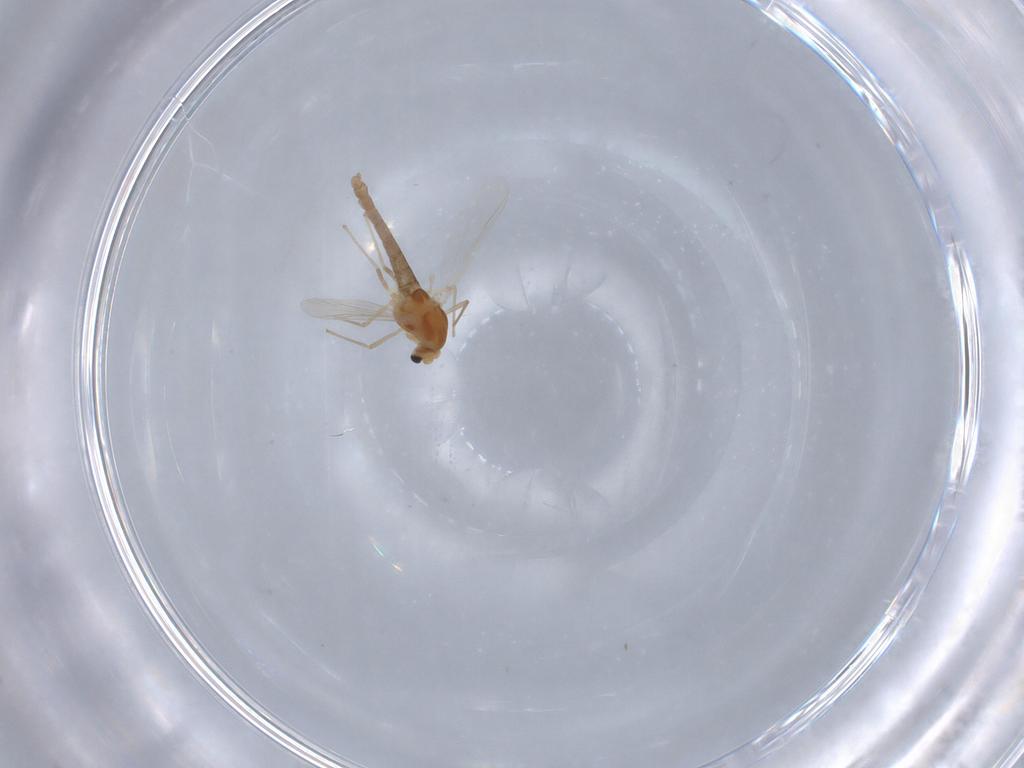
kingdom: Animalia
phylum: Arthropoda
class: Insecta
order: Diptera
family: Chironomidae
